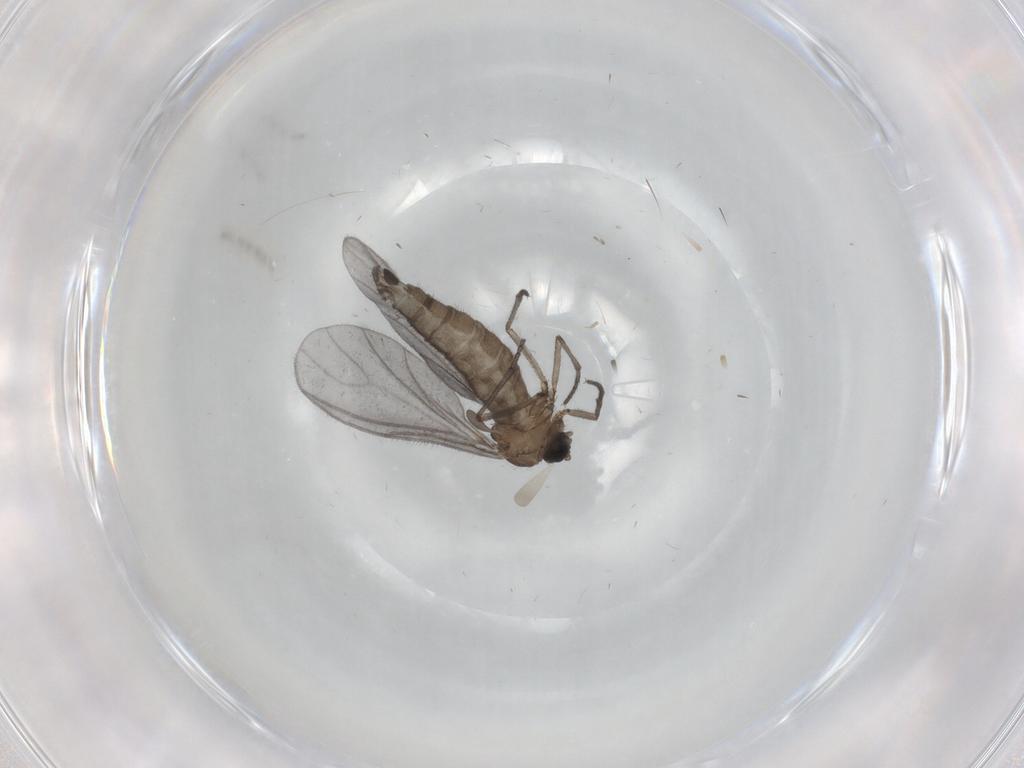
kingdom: Animalia
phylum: Arthropoda
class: Insecta
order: Diptera
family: Sciaridae
